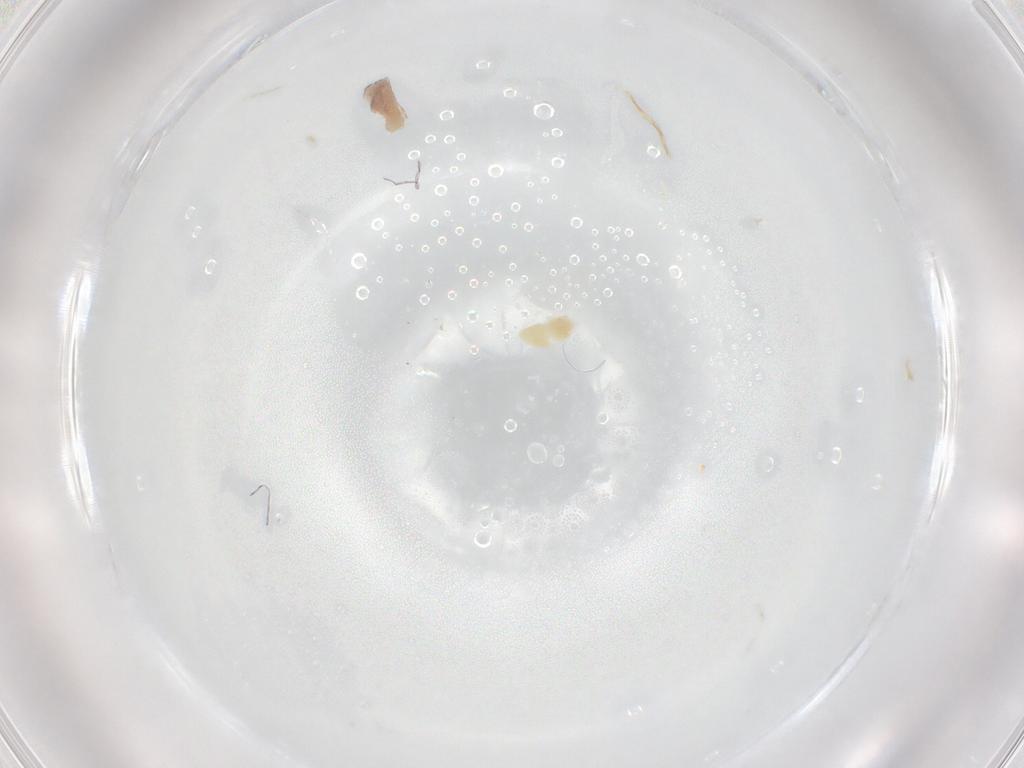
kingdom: Animalia
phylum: Arthropoda
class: Arachnida
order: Trombidiformes
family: Eupodidae
